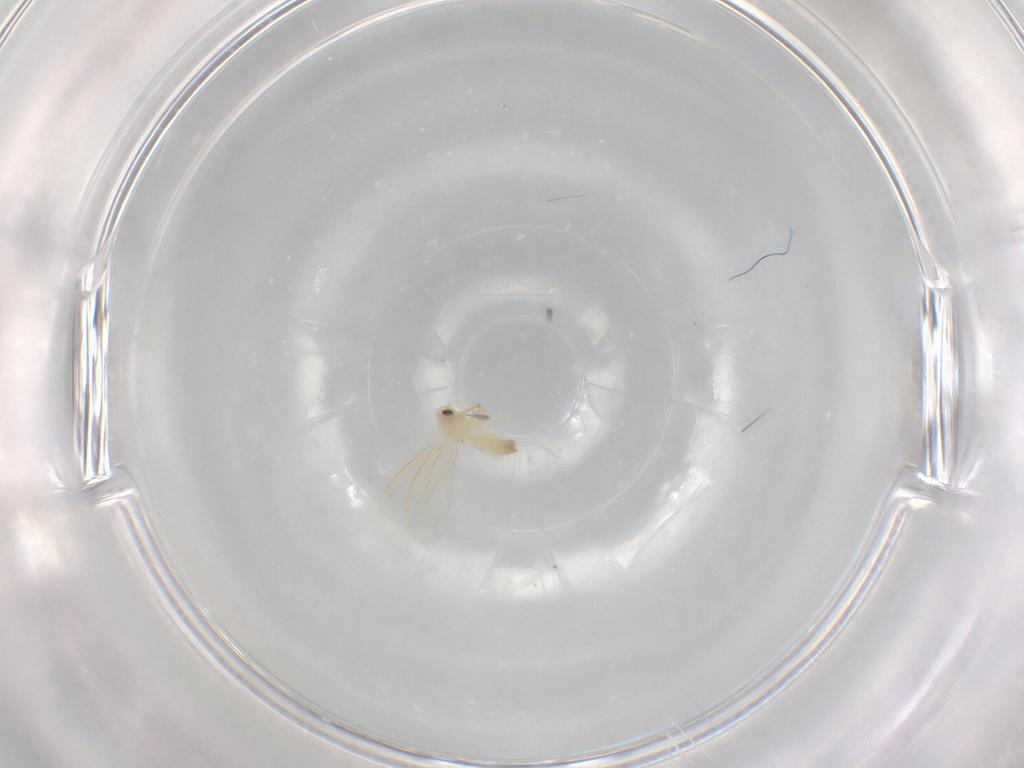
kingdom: Animalia
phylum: Arthropoda
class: Insecta
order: Hemiptera
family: Aleyrodidae
